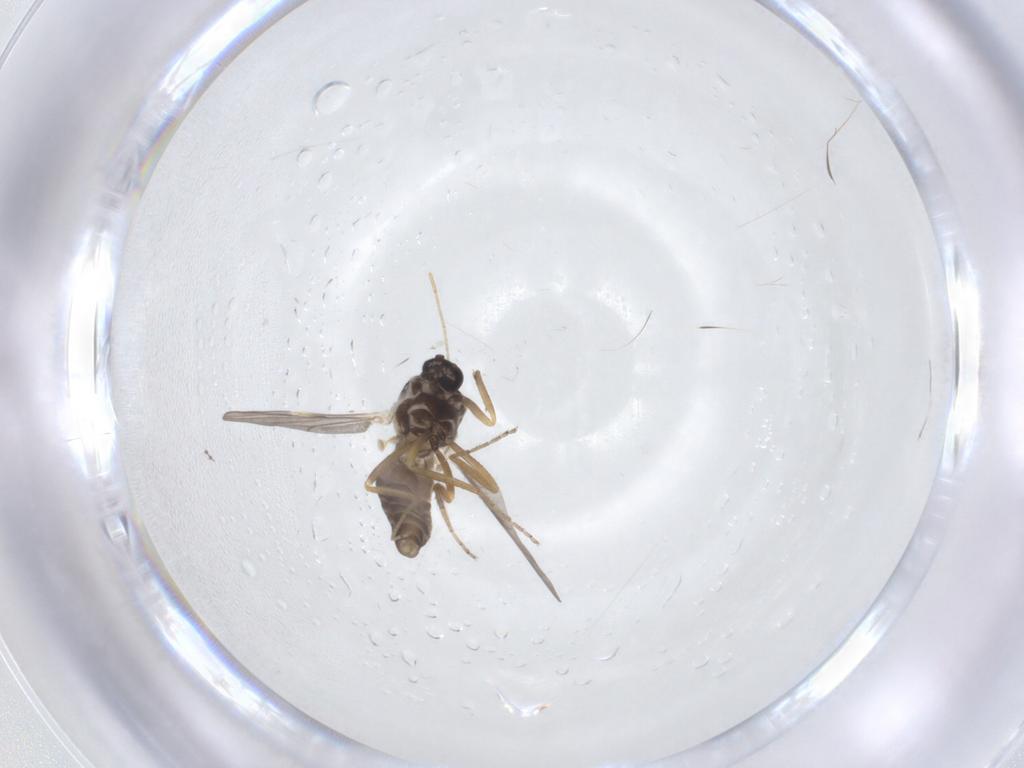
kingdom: Animalia
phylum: Arthropoda
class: Insecta
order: Diptera
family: Ceratopogonidae
